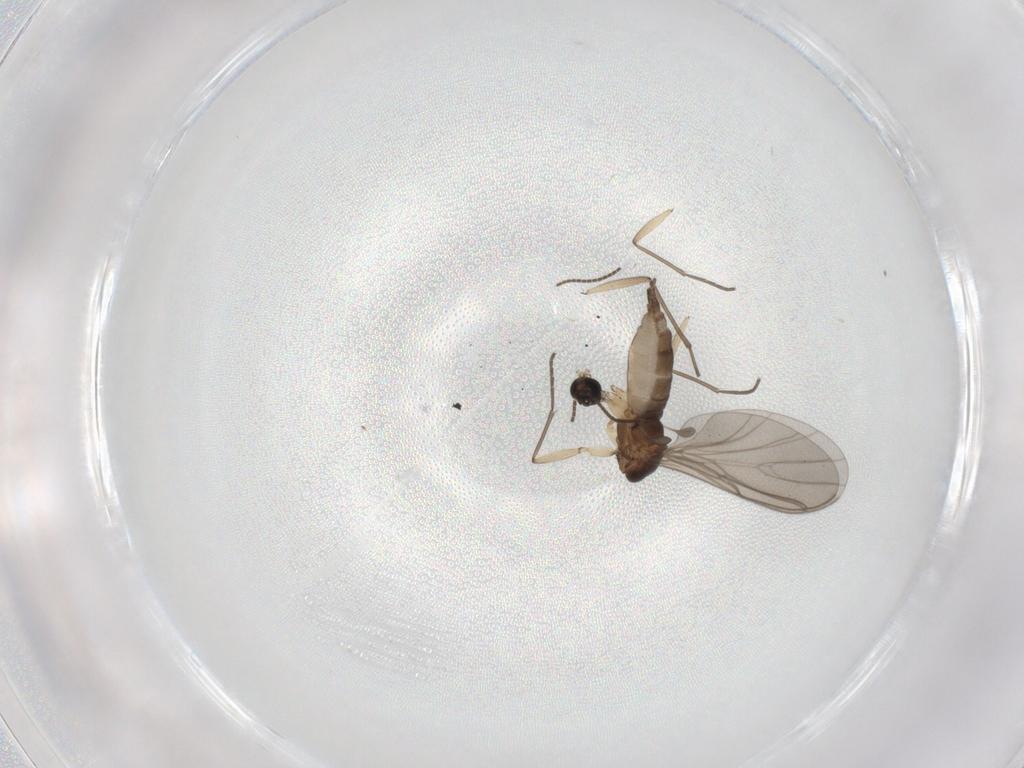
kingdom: Animalia
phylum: Arthropoda
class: Insecta
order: Diptera
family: Sciaridae
